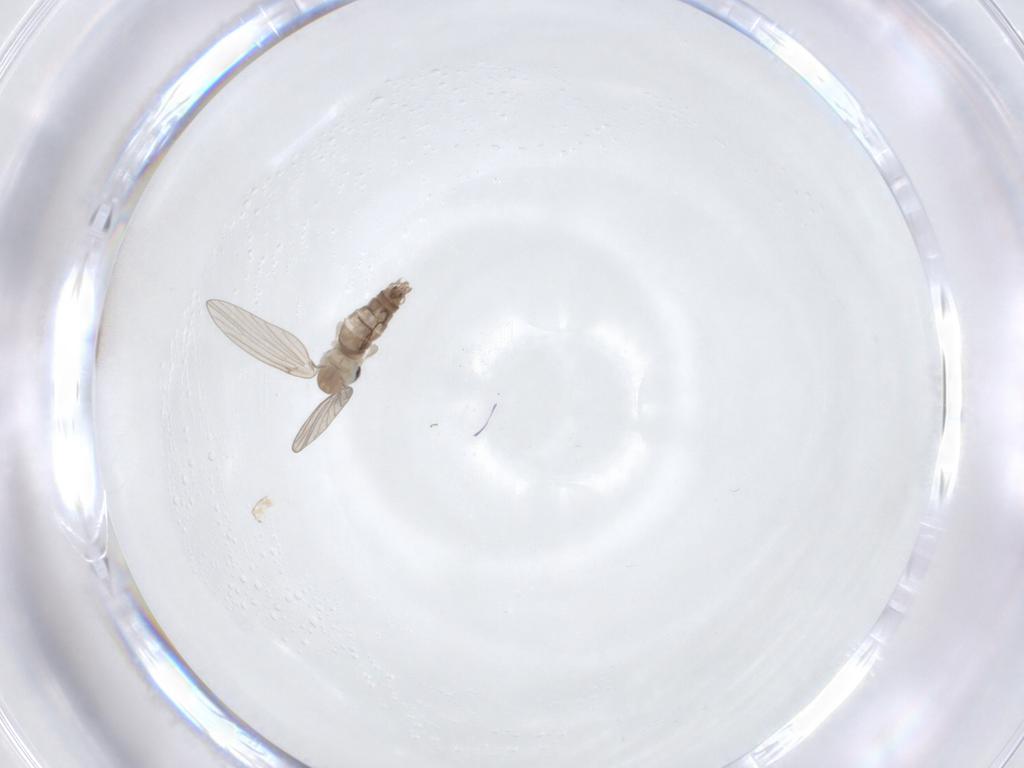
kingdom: Animalia
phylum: Arthropoda
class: Insecta
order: Diptera
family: Psychodidae
